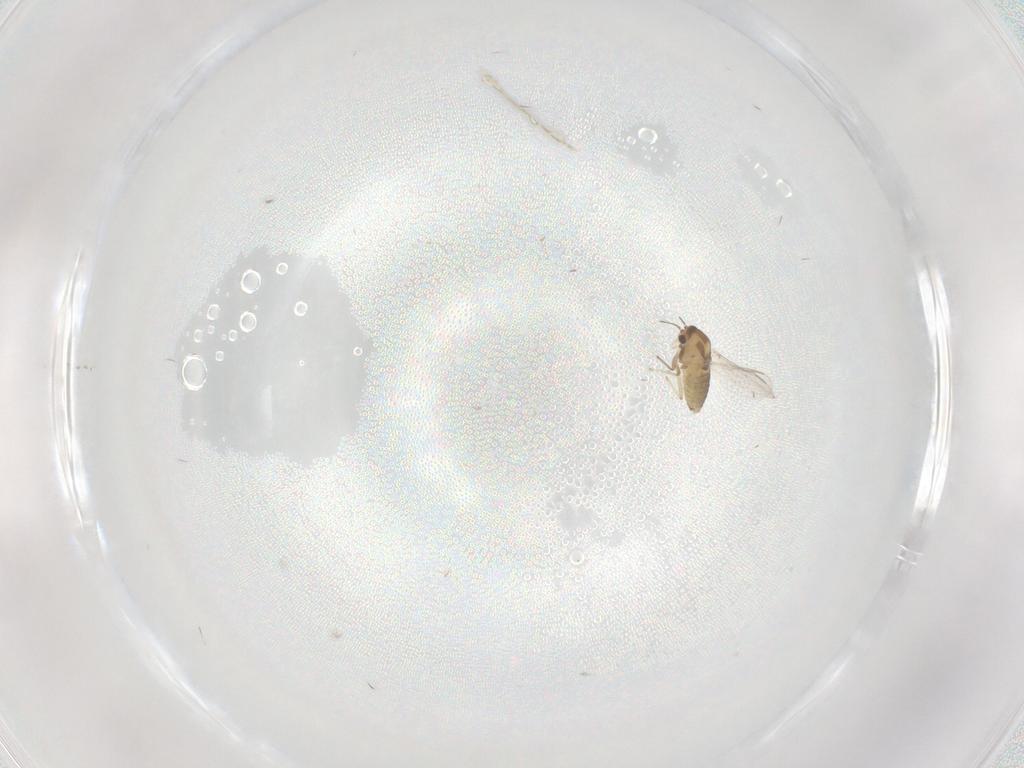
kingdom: Animalia
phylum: Arthropoda
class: Insecta
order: Diptera
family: Chironomidae
